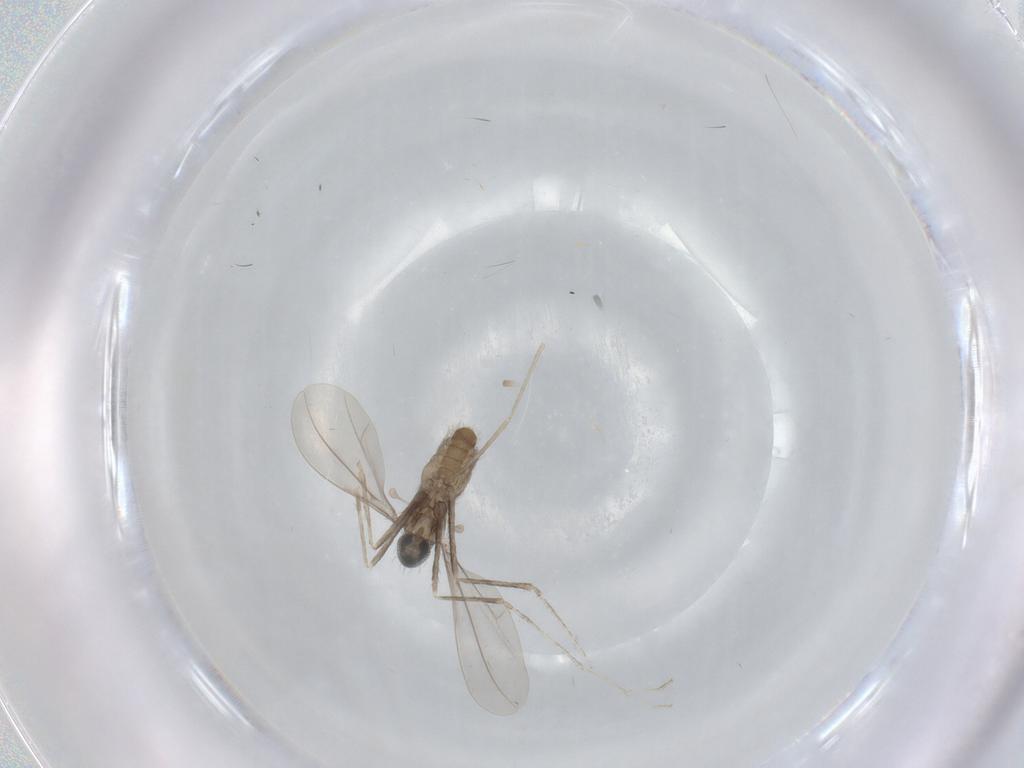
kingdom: Animalia
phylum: Arthropoda
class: Insecta
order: Diptera
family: Cecidomyiidae
